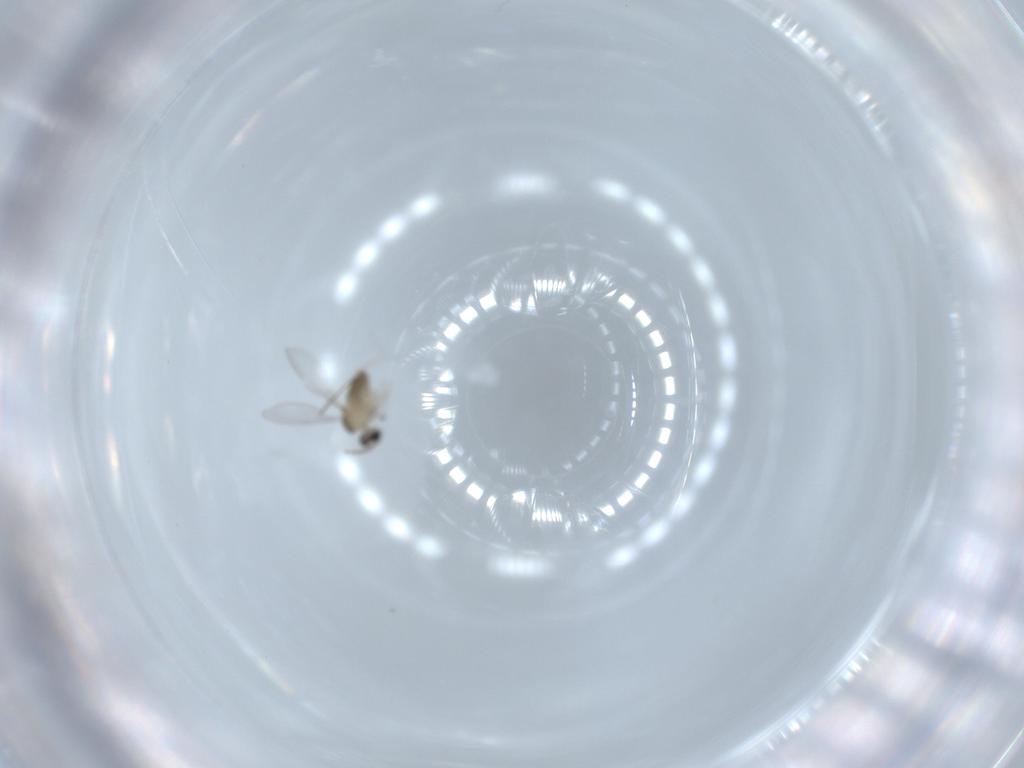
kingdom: Animalia
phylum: Arthropoda
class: Insecta
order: Diptera
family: Cecidomyiidae
